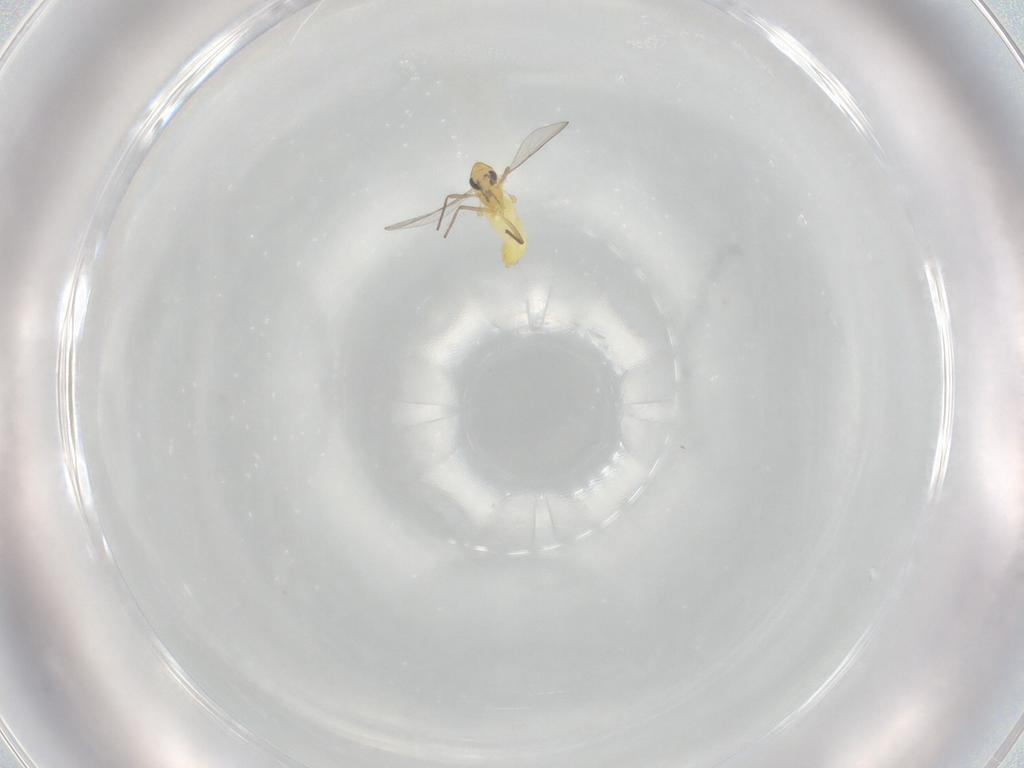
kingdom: Animalia
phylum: Arthropoda
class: Insecta
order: Diptera
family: Chironomidae
